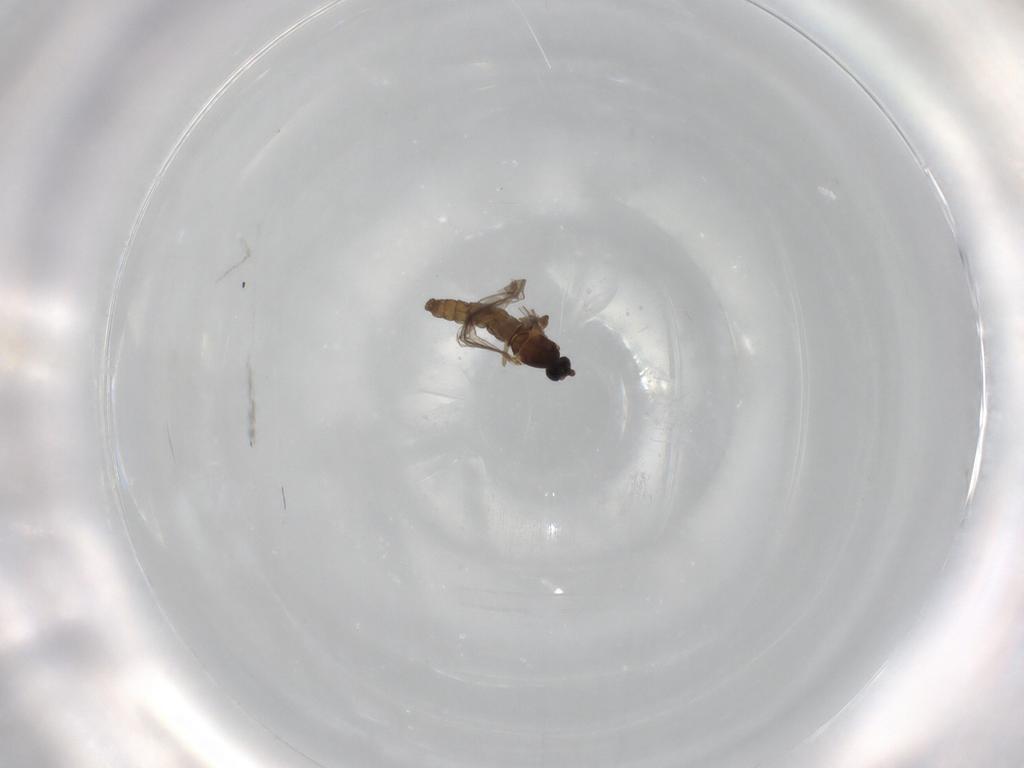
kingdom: Animalia
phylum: Arthropoda
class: Insecta
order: Diptera
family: Cecidomyiidae
